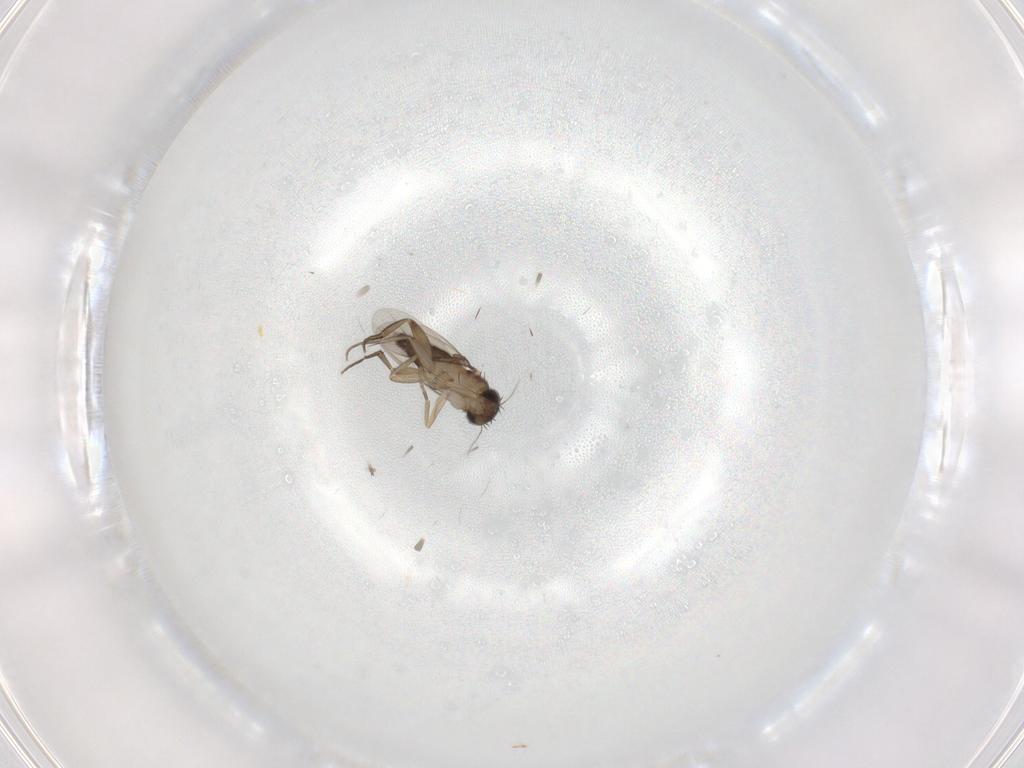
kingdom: Animalia
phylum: Arthropoda
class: Insecta
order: Diptera
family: Phoridae
